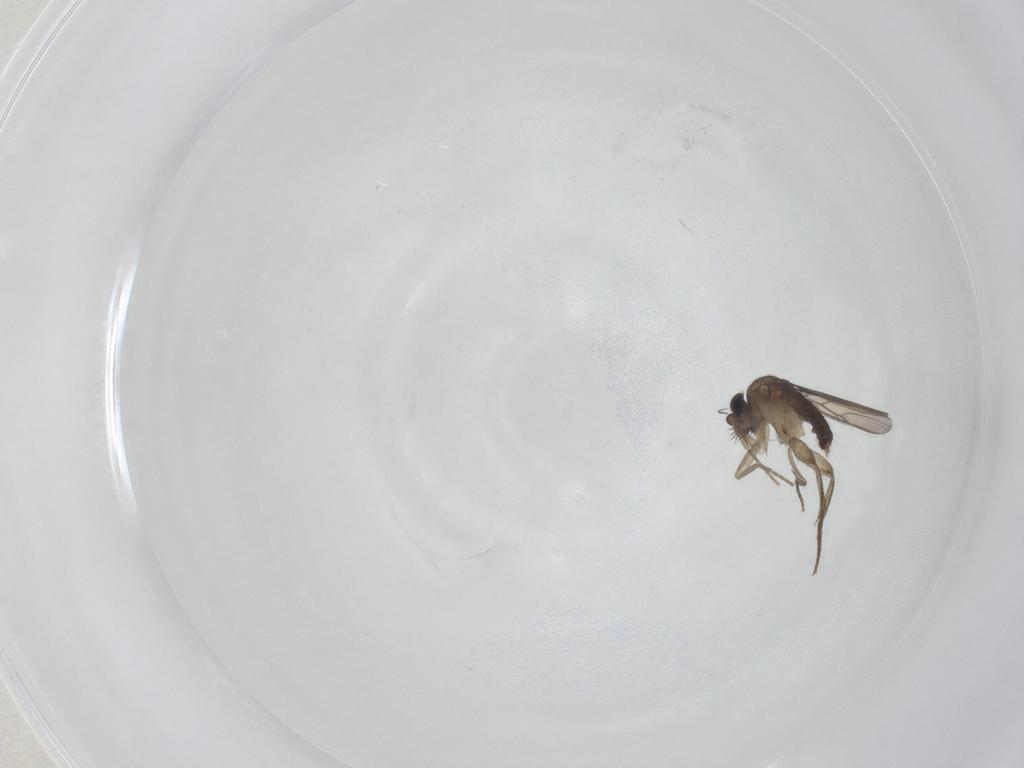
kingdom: Animalia
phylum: Arthropoda
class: Insecta
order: Diptera
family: Phoridae
